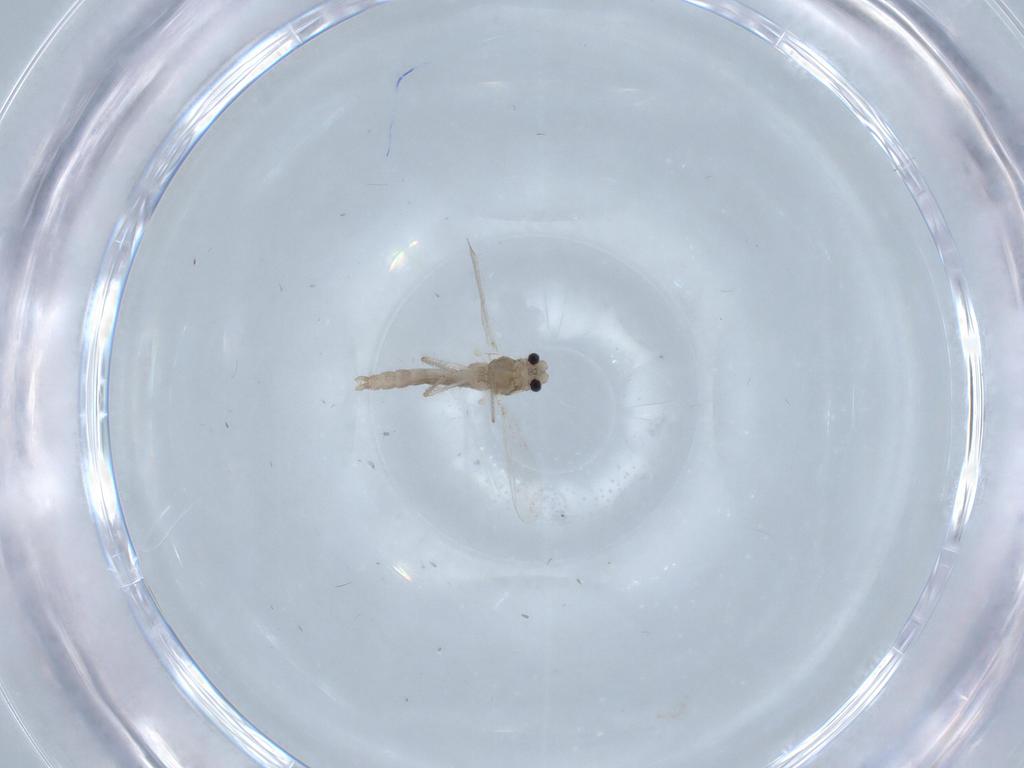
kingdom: Animalia
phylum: Arthropoda
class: Insecta
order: Diptera
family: Chironomidae
